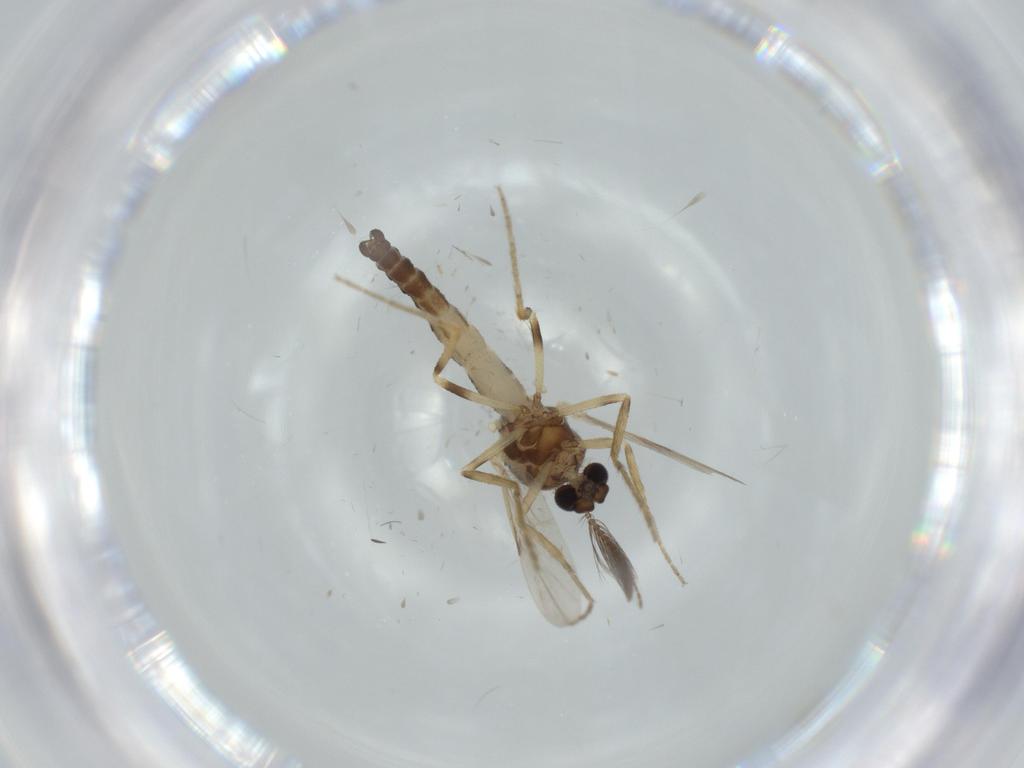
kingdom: Animalia
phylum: Arthropoda
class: Insecta
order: Diptera
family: Ceratopogonidae
